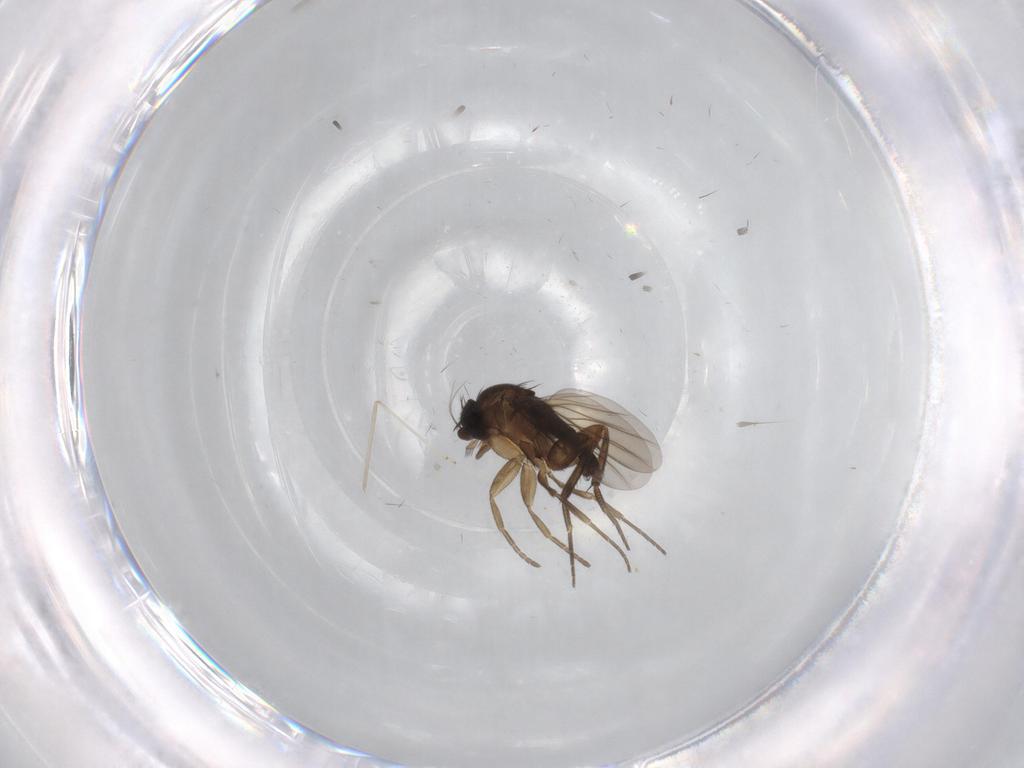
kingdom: Animalia
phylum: Arthropoda
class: Insecta
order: Diptera
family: Phoridae
